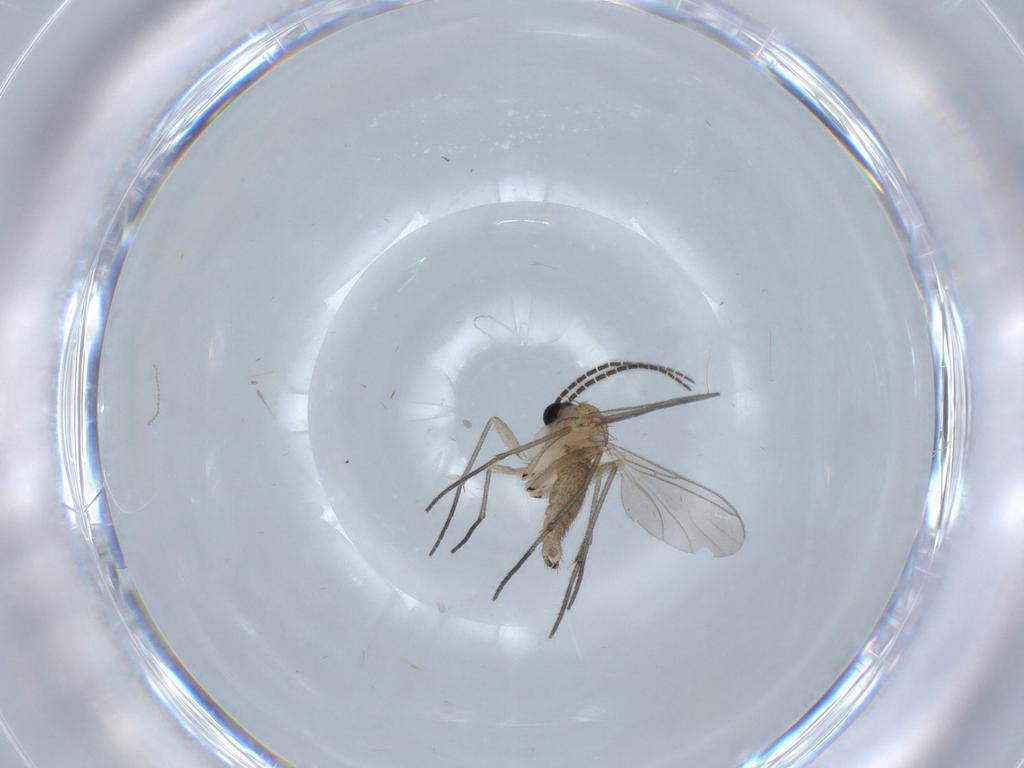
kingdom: Animalia
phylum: Arthropoda
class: Insecta
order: Diptera
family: Sciaridae
